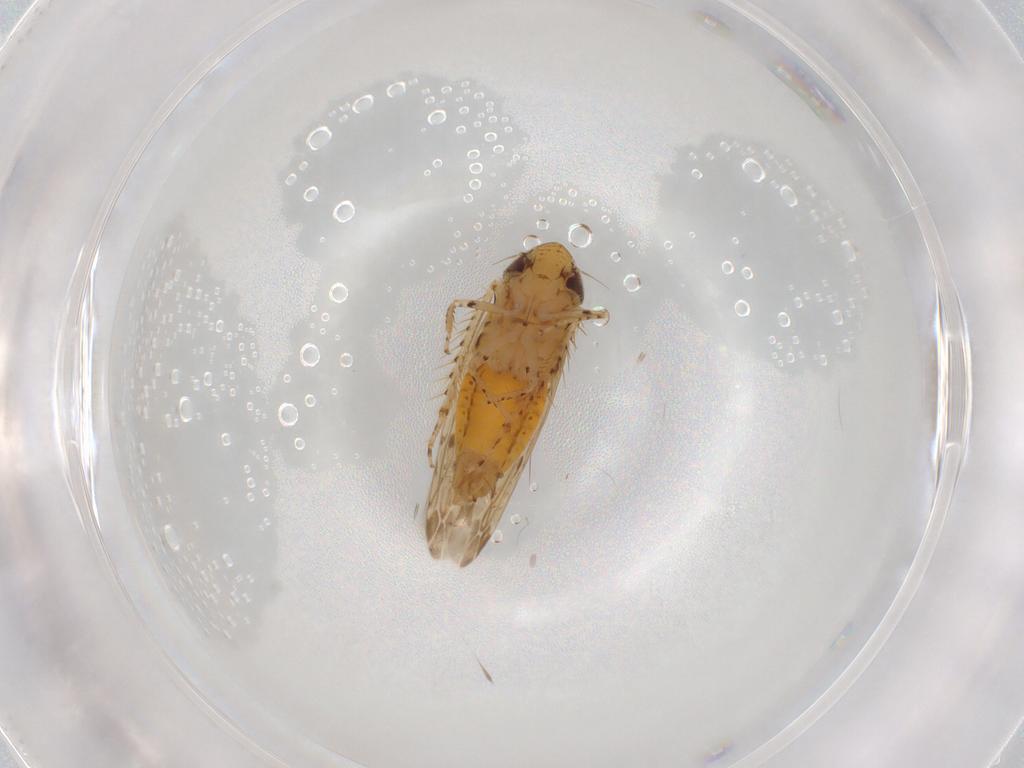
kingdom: Animalia
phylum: Arthropoda
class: Insecta
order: Hemiptera
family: Cicadellidae
